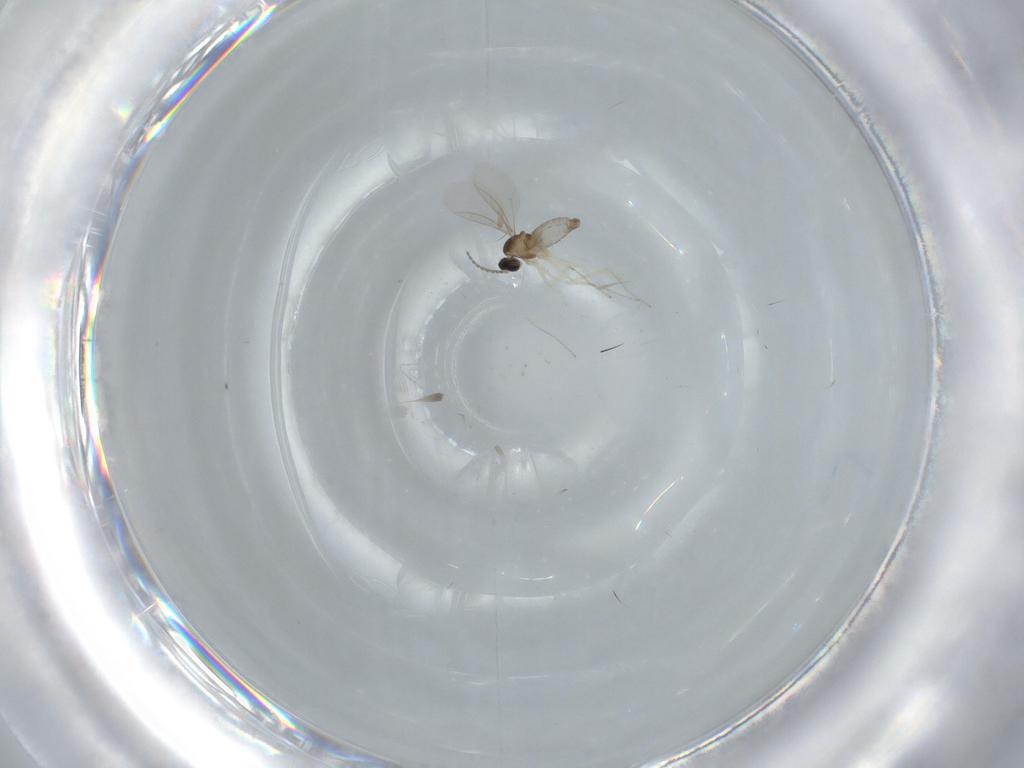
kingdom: Animalia
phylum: Arthropoda
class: Insecta
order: Diptera
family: Cecidomyiidae
